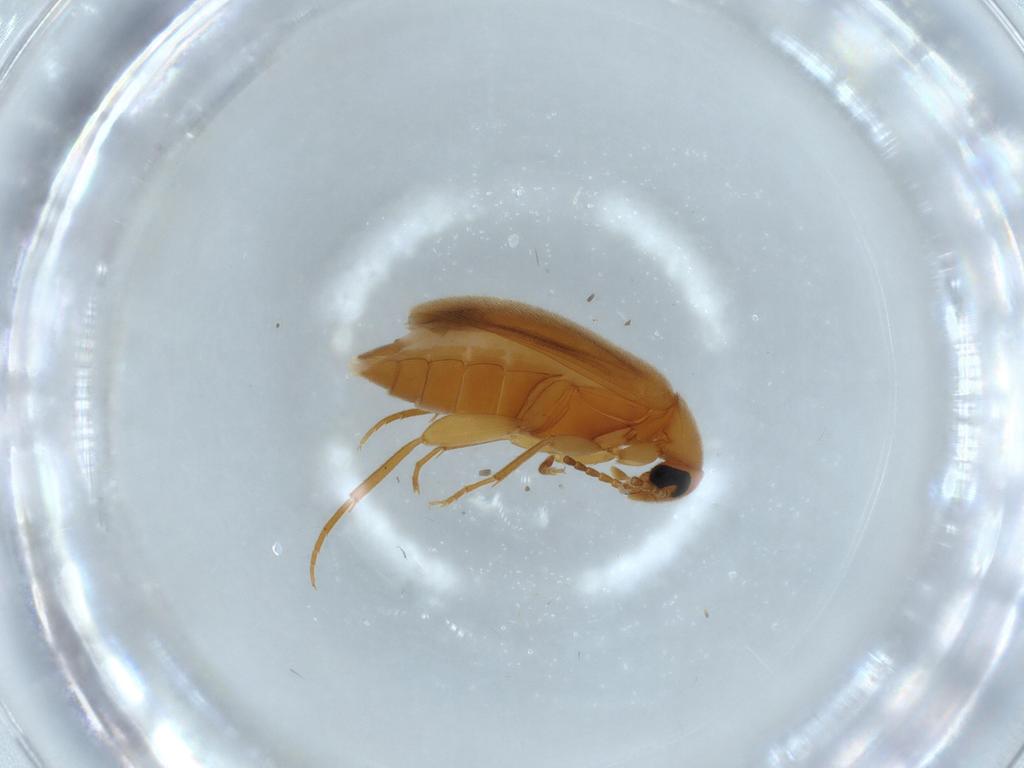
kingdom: Animalia
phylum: Arthropoda
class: Insecta
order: Coleoptera
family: Scraptiidae
